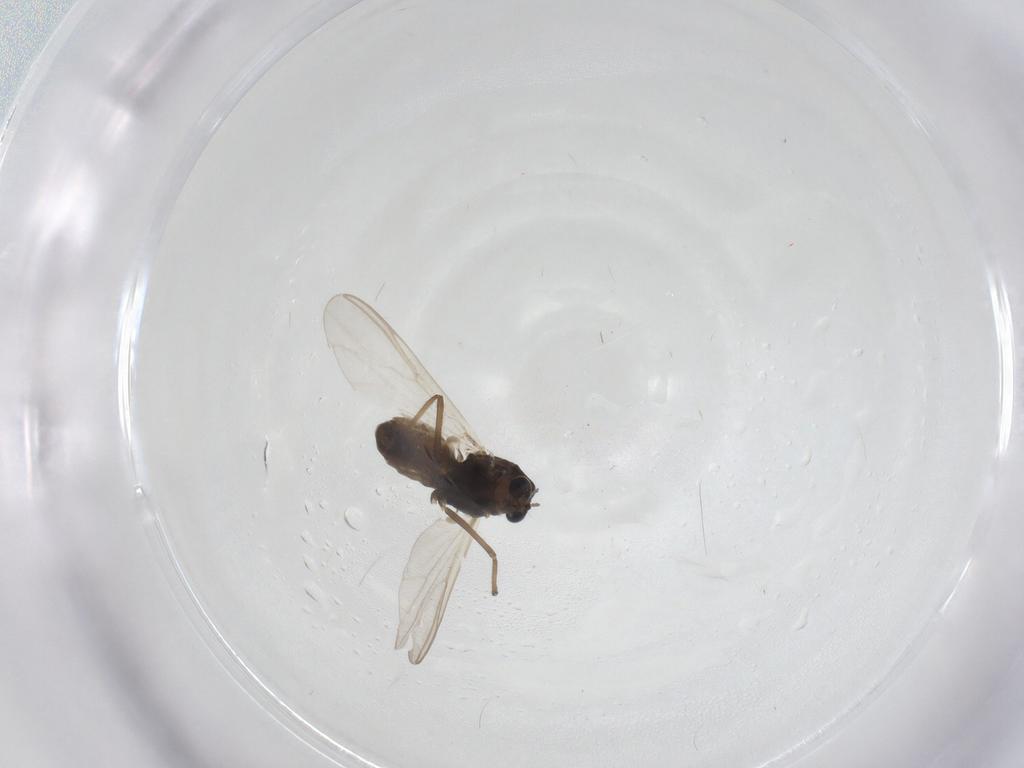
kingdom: Animalia
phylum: Arthropoda
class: Insecta
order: Diptera
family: Chironomidae
